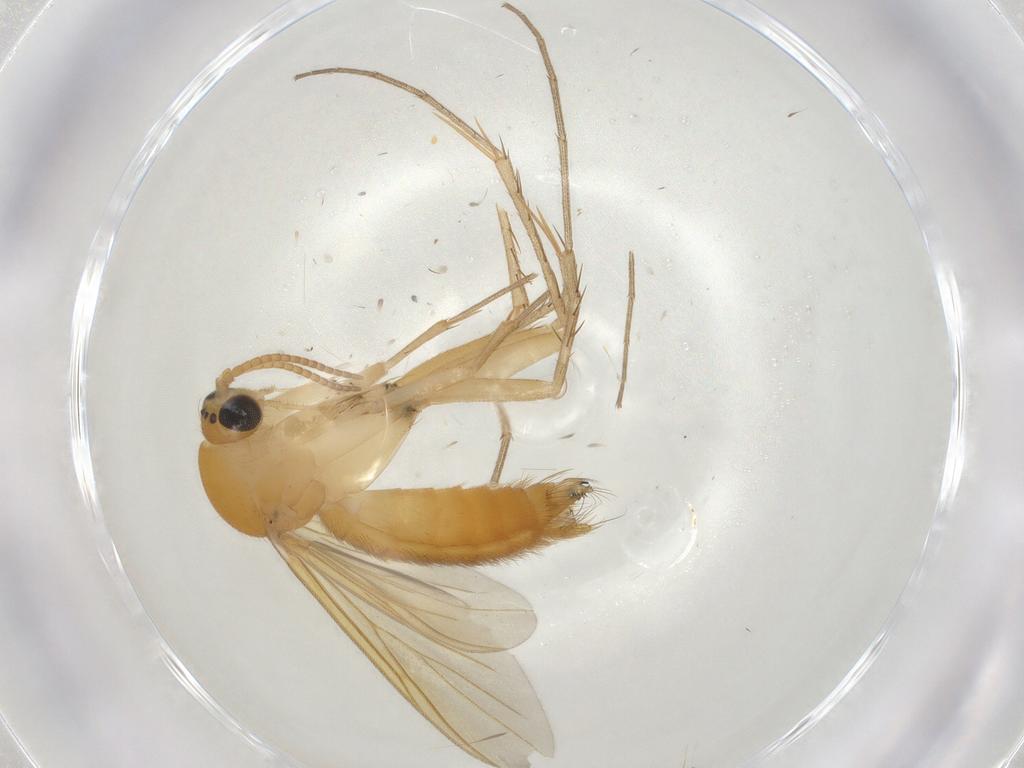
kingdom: Animalia
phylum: Arthropoda
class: Insecta
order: Diptera
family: Mycetophilidae
